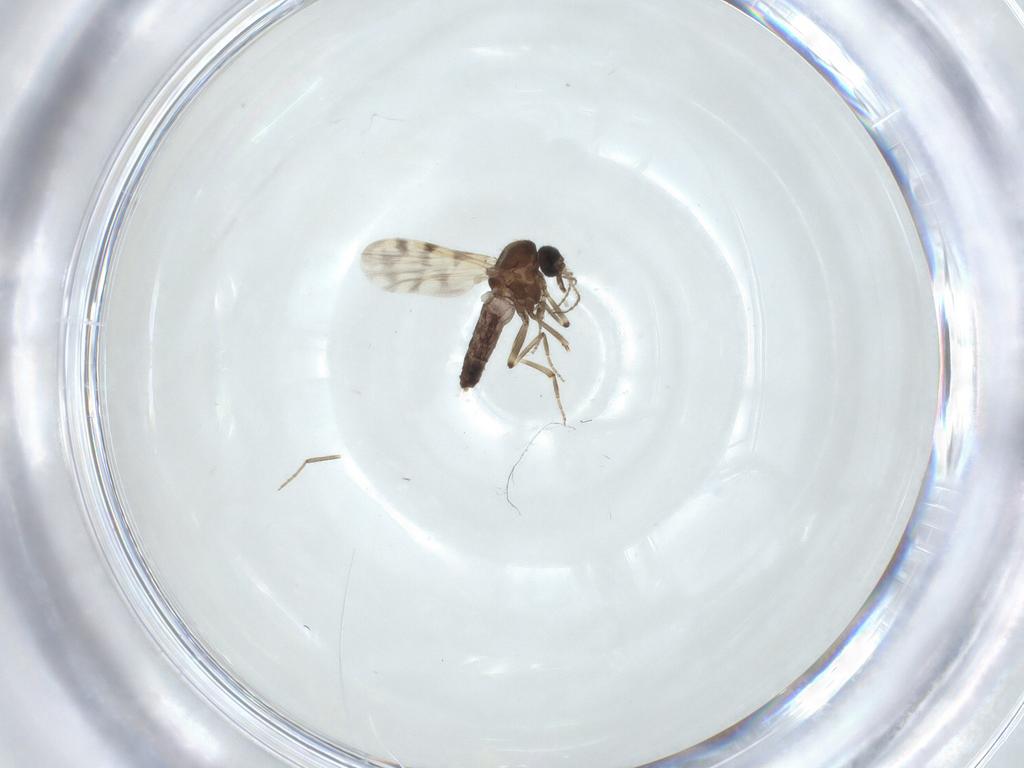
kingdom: Animalia
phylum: Arthropoda
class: Insecta
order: Diptera
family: Ceratopogonidae
